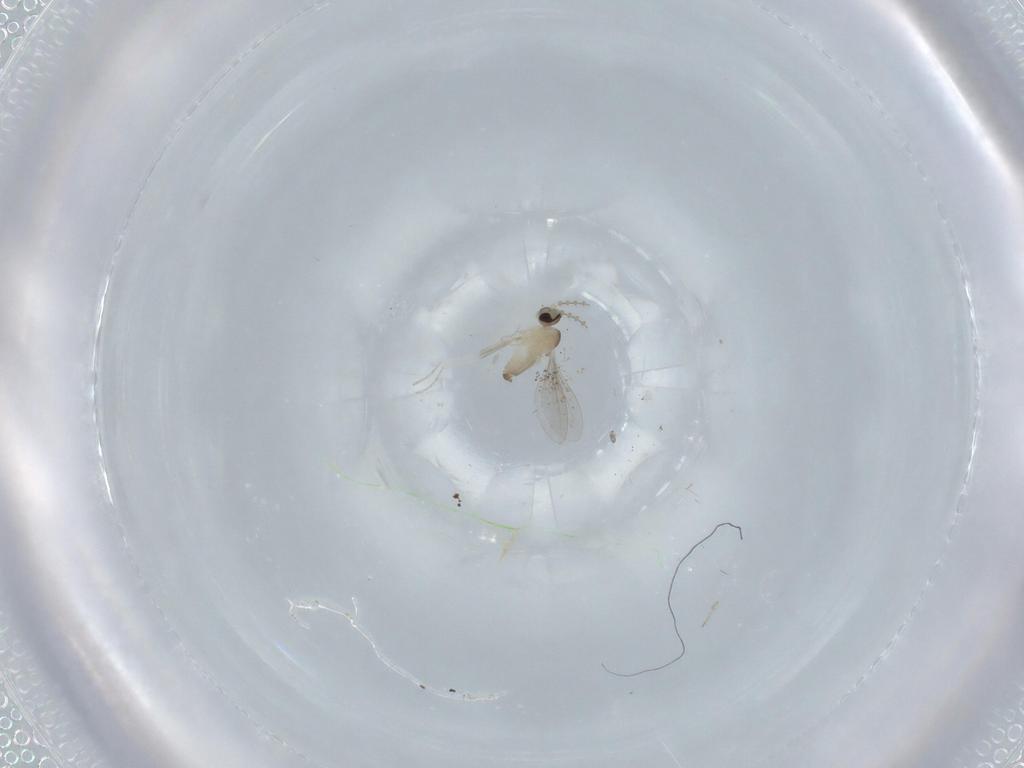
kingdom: Animalia
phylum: Arthropoda
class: Insecta
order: Diptera
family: Cecidomyiidae
